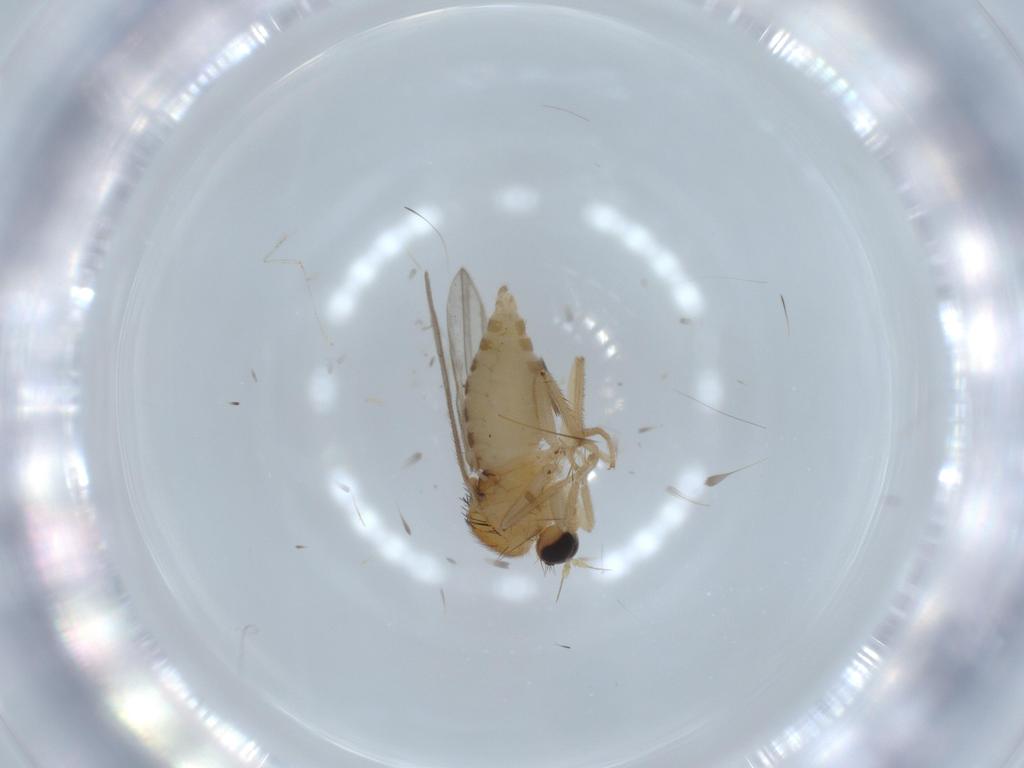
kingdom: Animalia
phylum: Arthropoda
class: Insecta
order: Diptera
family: Hybotidae
